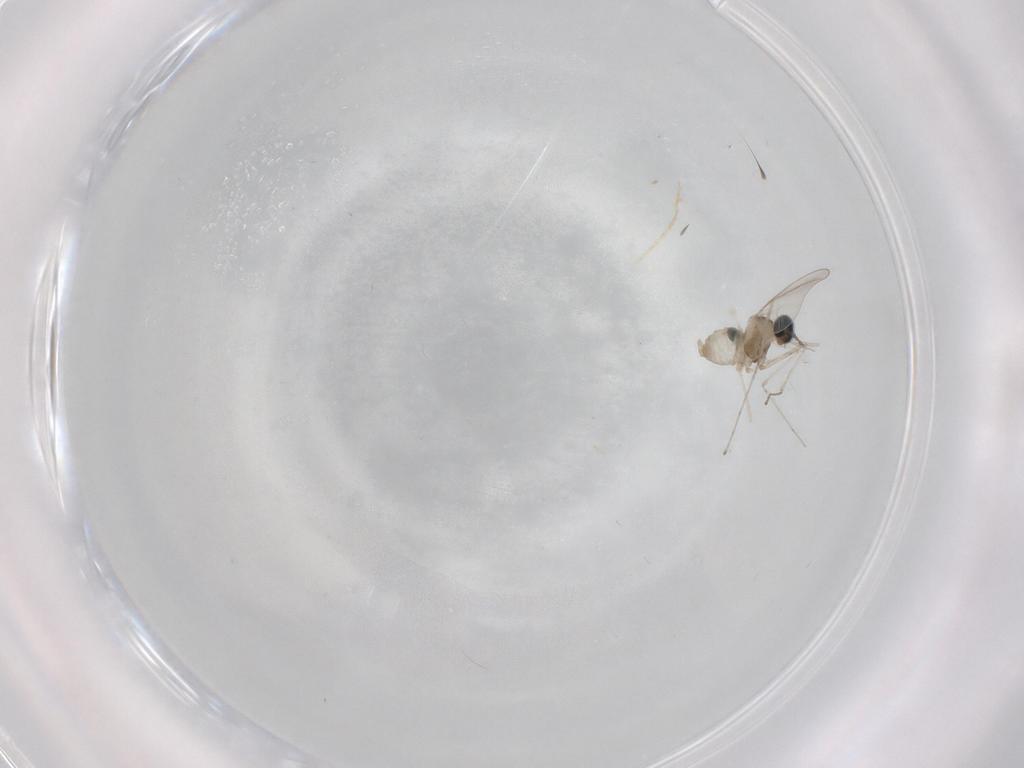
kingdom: Animalia
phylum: Arthropoda
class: Insecta
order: Diptera
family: Cecidomyiidae
